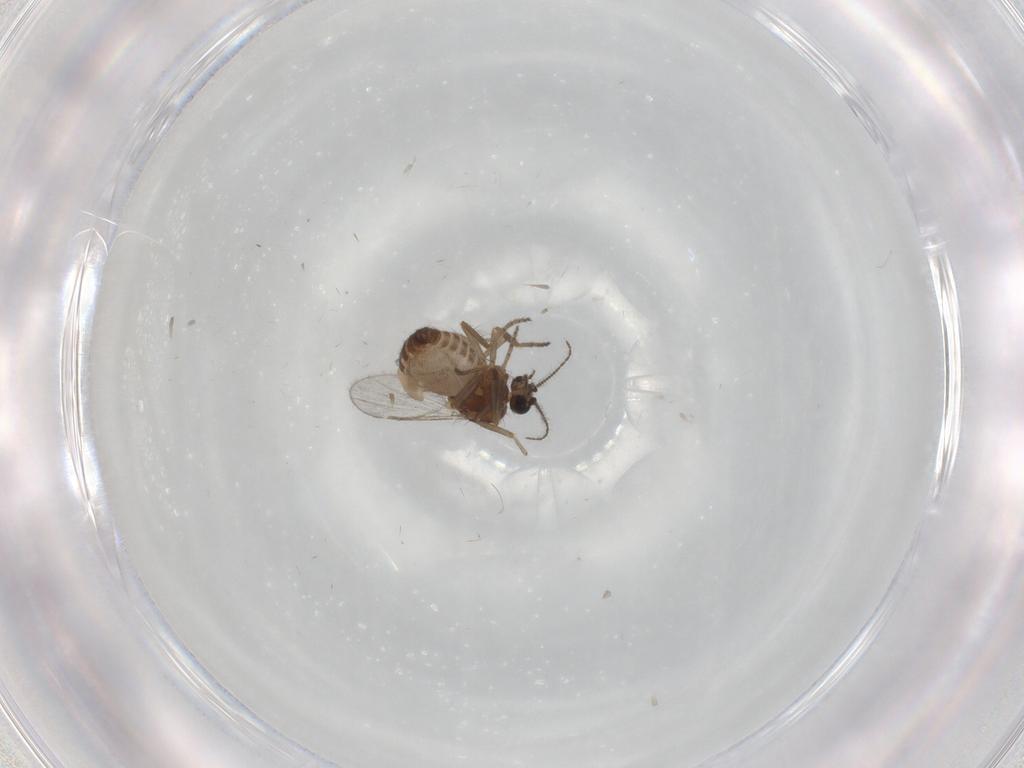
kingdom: Animalia
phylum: Arthropoda
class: Insecta
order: Diptera
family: Ceratopogonidae
